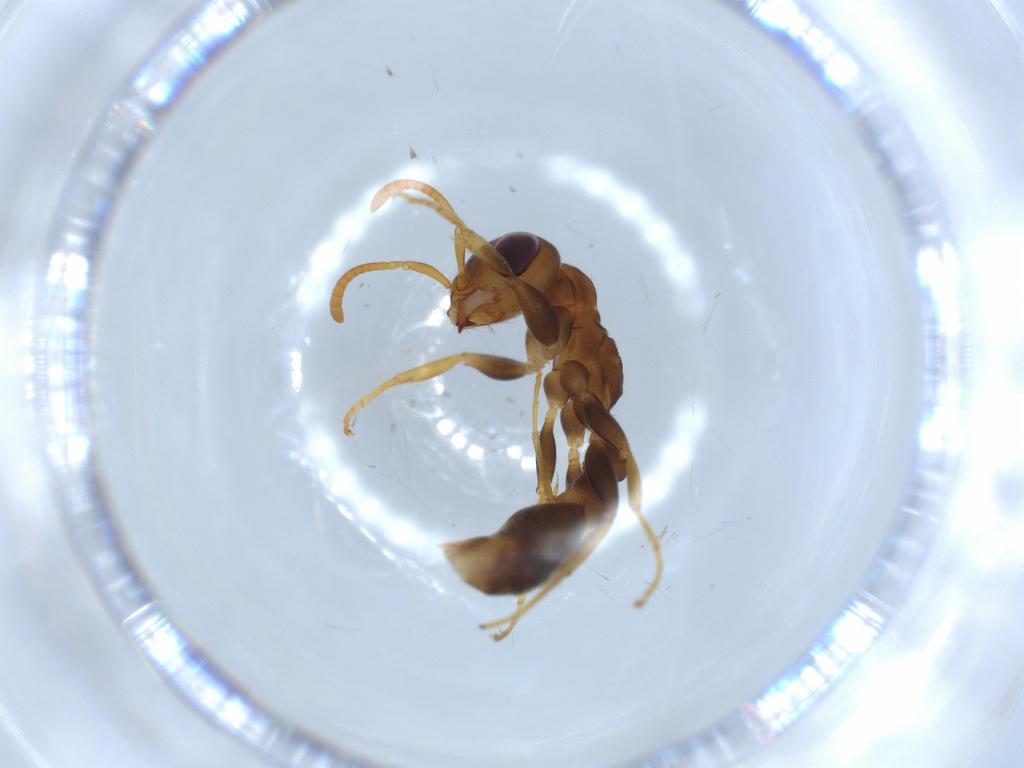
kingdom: Animalia
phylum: Arthropoda
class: Insecta
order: Hymenoptera
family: Formicidae
